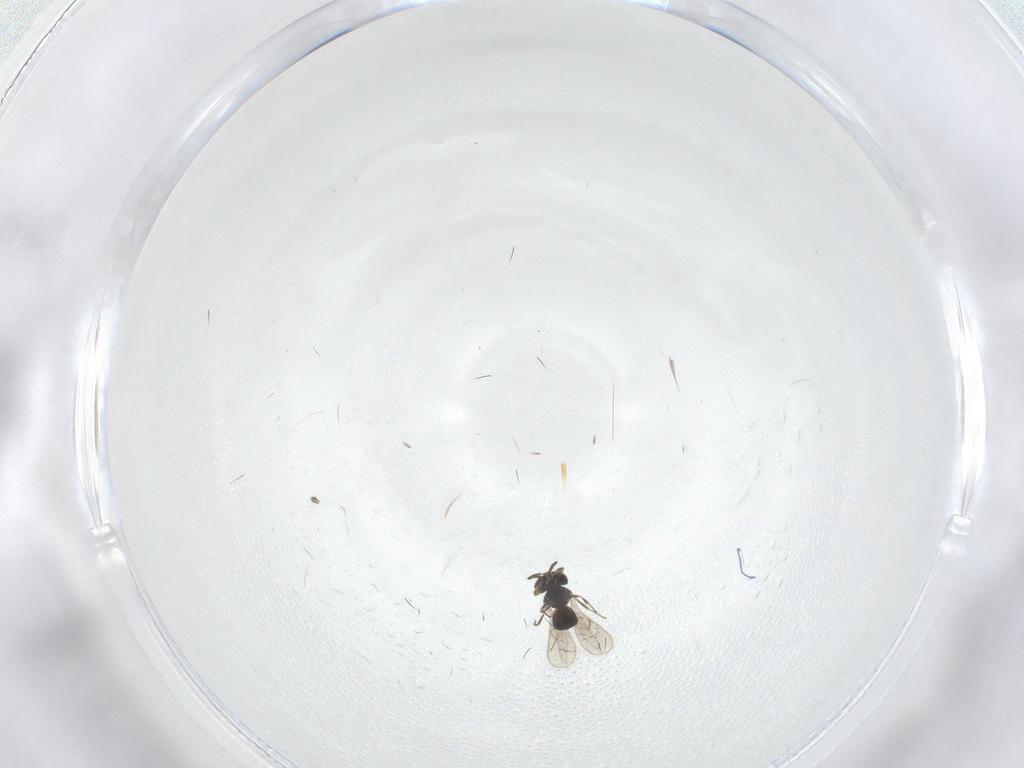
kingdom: Animalia
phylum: Arthropoda
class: Insecta
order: Hymenoptera
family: Scelionidae
